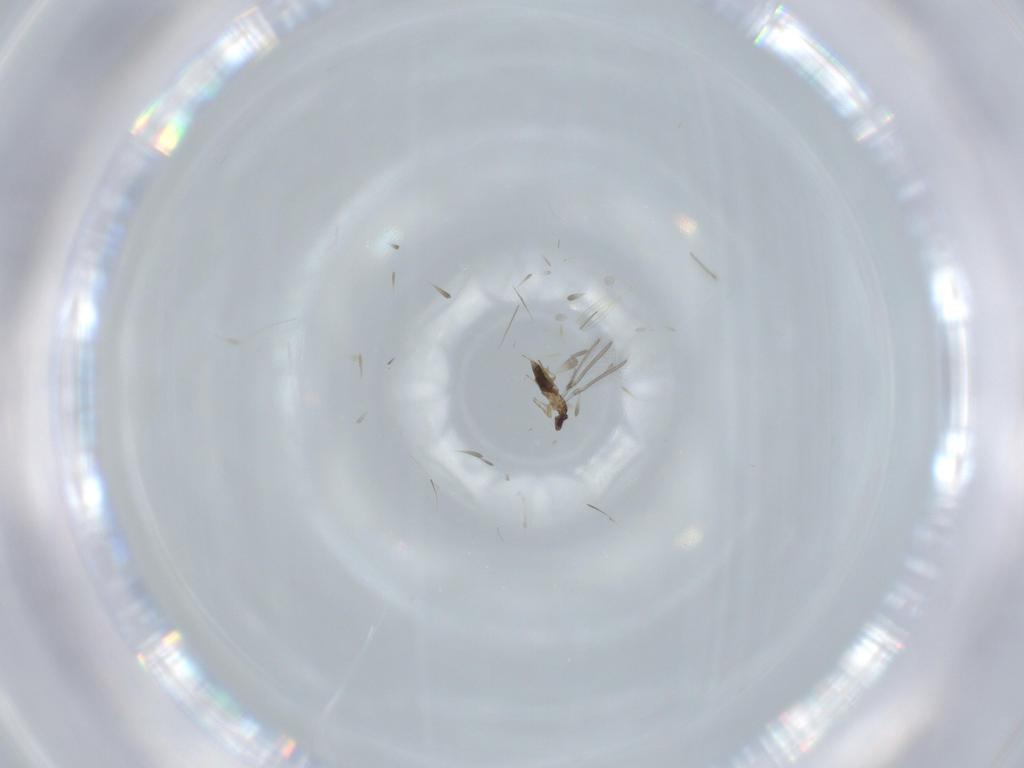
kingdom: Animalia
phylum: Arthropoda
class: Insecta
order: Hymenoptera
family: Mymaridae
